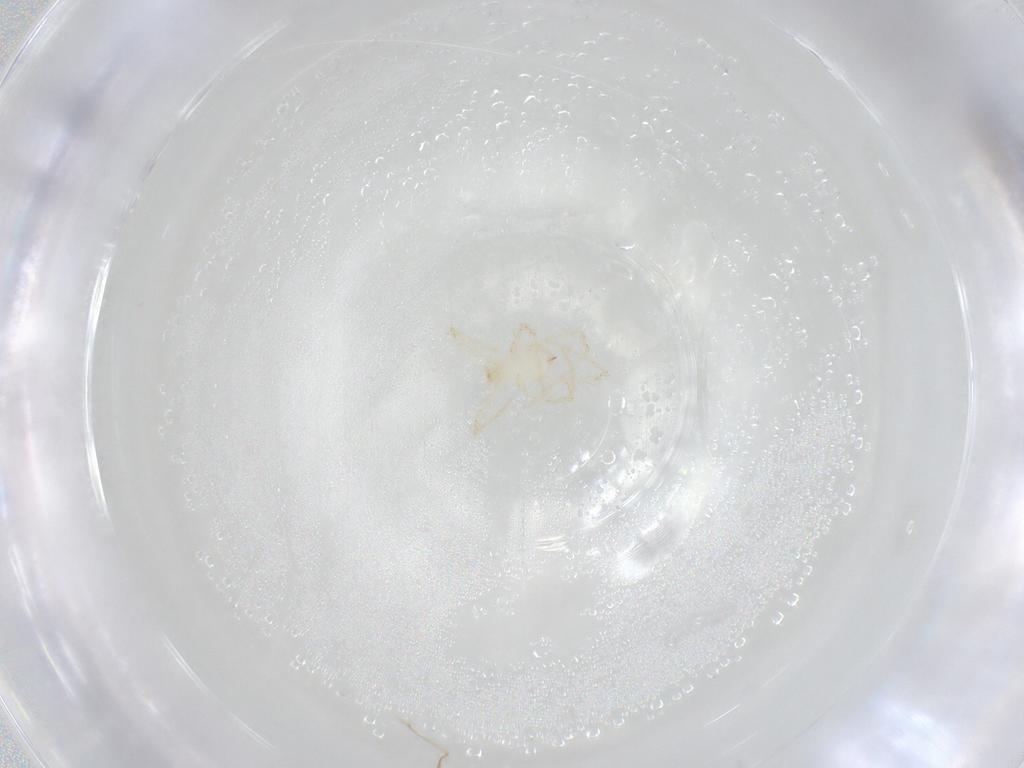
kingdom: Animalia
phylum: Arthropoda
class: Arachnida
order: Trombidiformes
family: Erythraeidae
